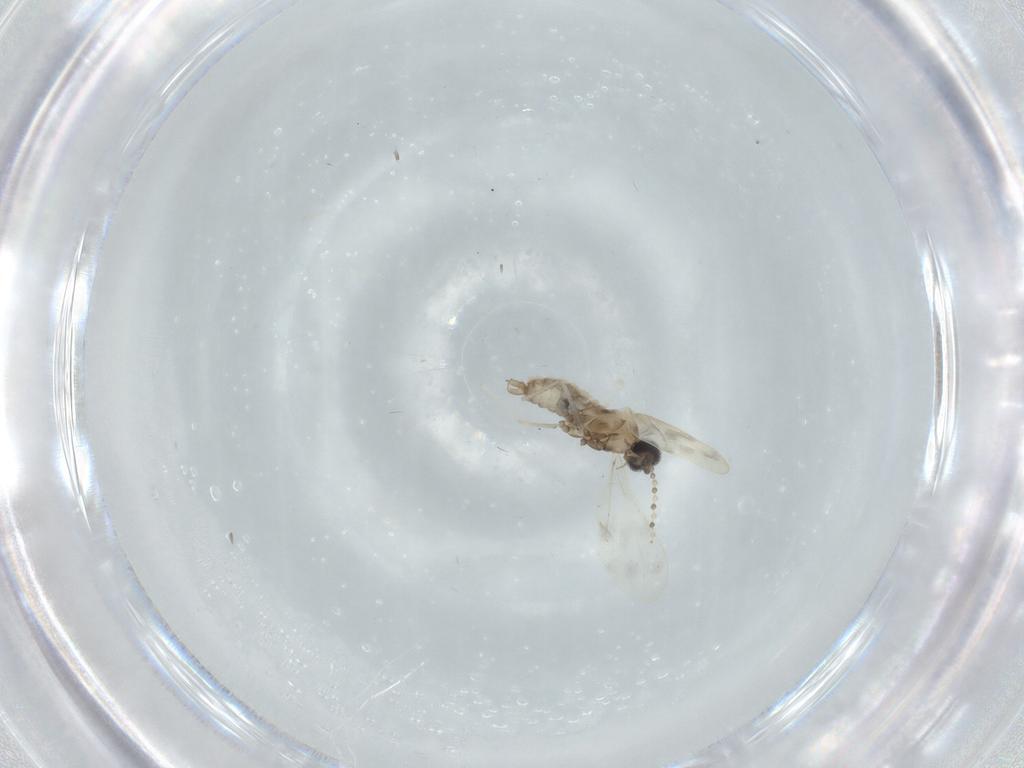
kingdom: Animalia
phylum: Arthropoda
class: Insecta
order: Diptera
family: Cecidomyiidae
